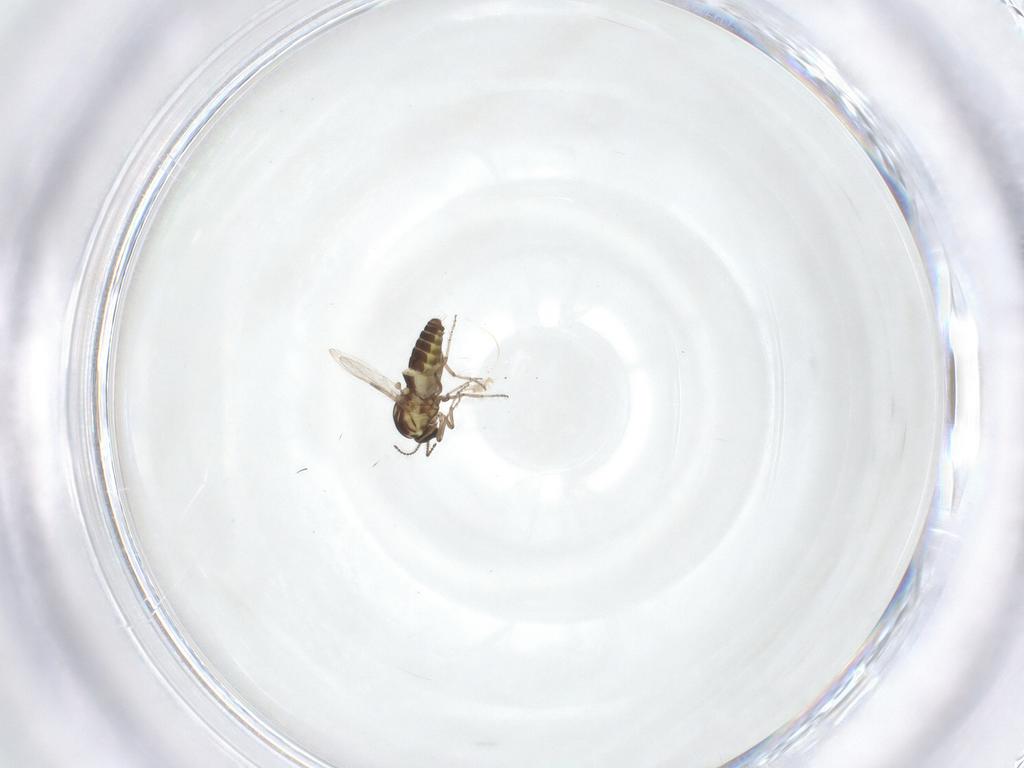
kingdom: Animalia
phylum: Arthropoda
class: Insecta
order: Diptera
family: Ceratopogonidae
